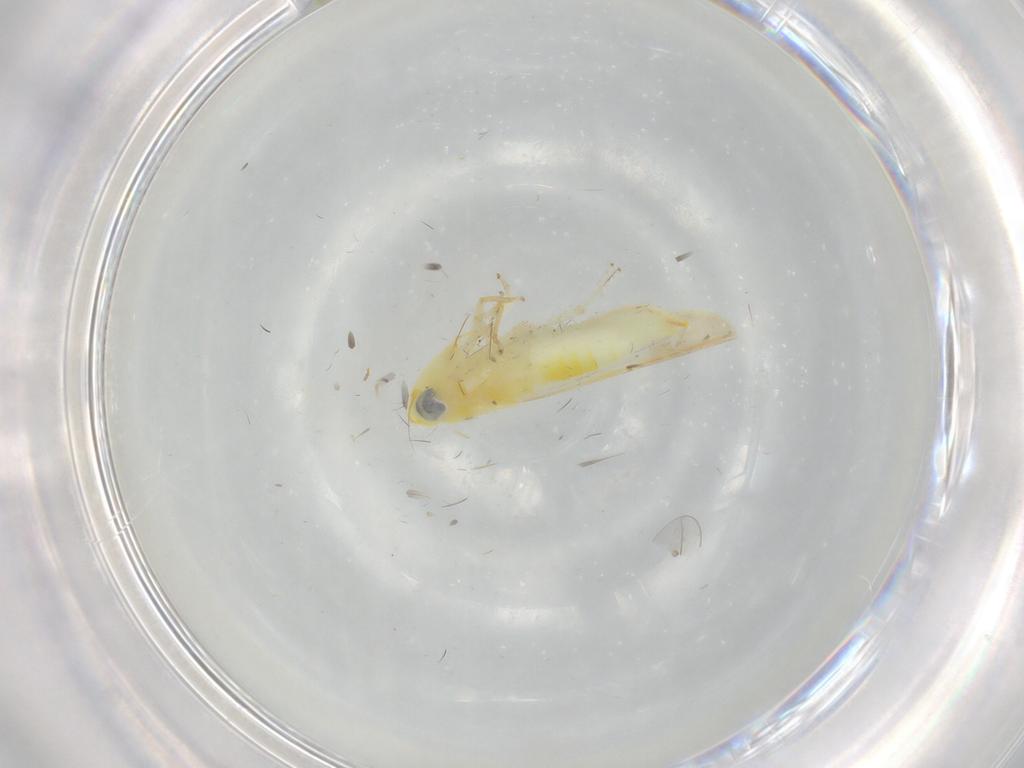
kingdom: Animalia
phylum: Arthropoda
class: Insecta
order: Hemiptera
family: Cicadellidae
